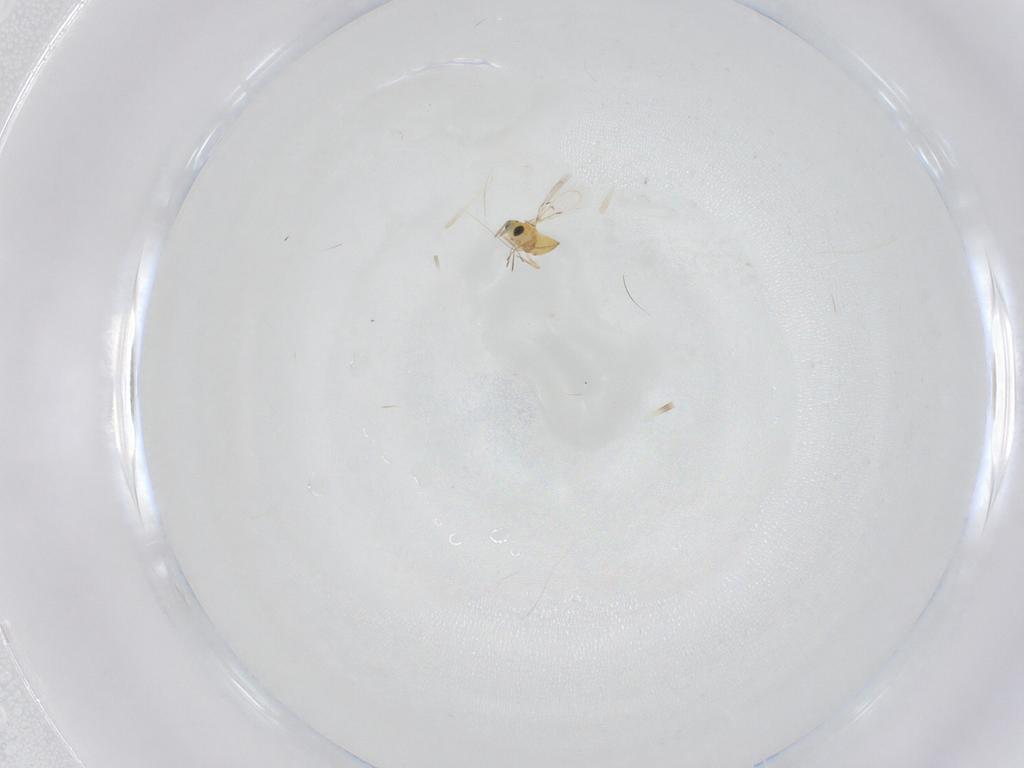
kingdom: Animalia
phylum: Arthropoda
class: Insecta
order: Hymenoptera
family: Trichogrammatidae
